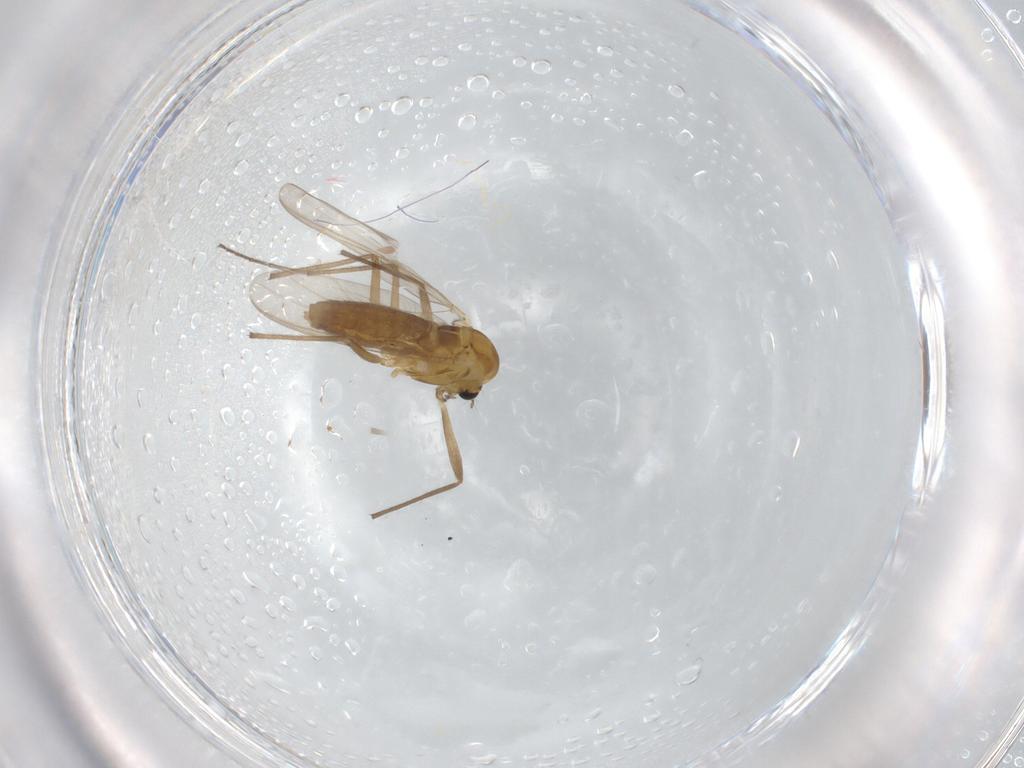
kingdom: Animalia
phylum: Arthropoda
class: Insecta
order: Diptera
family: Chironomidae
